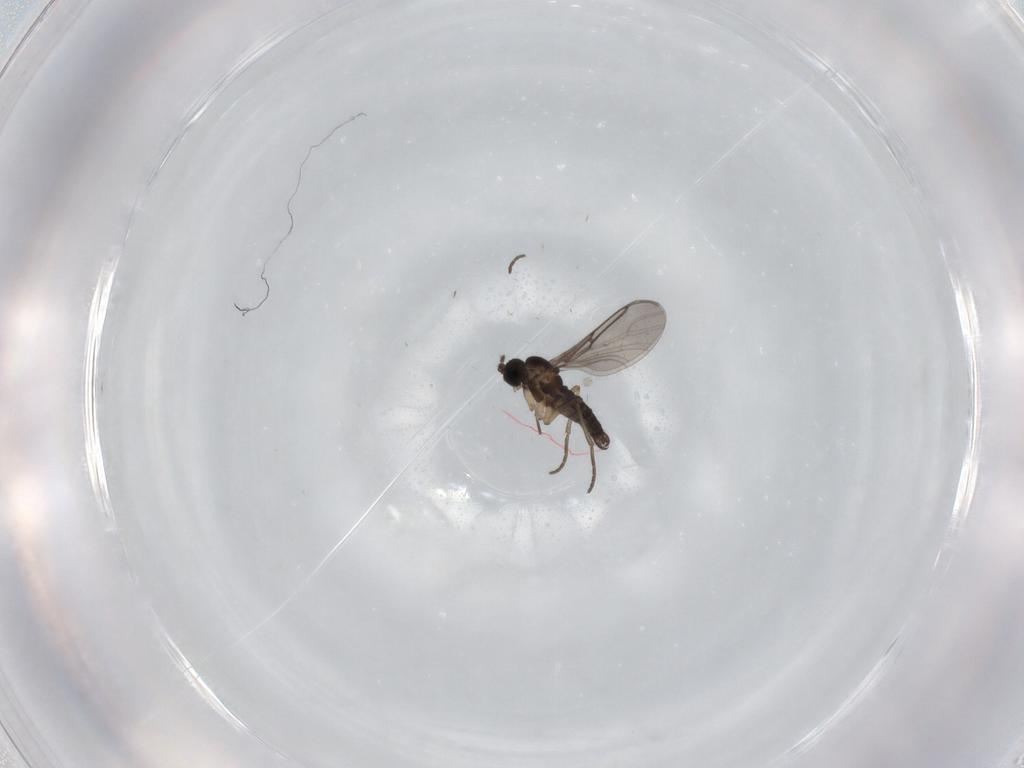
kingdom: Animalia
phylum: Arthropoda
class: Insecta
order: Diptera
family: Sciaridae
